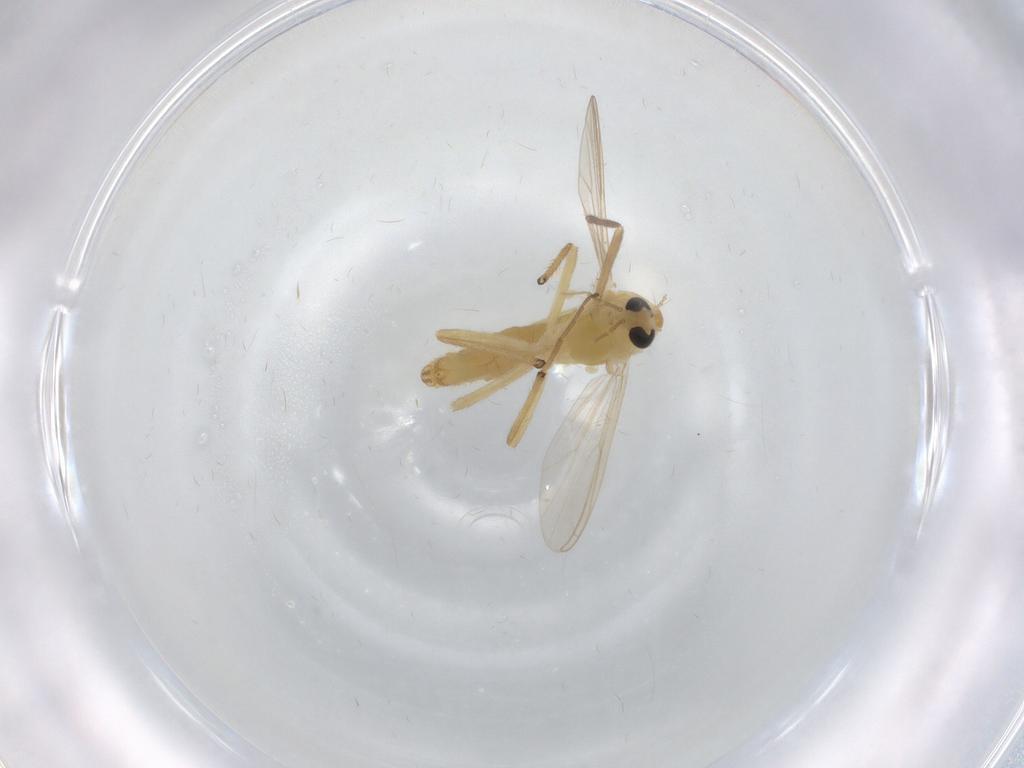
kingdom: Animalia
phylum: Arthropoda
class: Insecta
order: Diptera
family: Chironomidae
